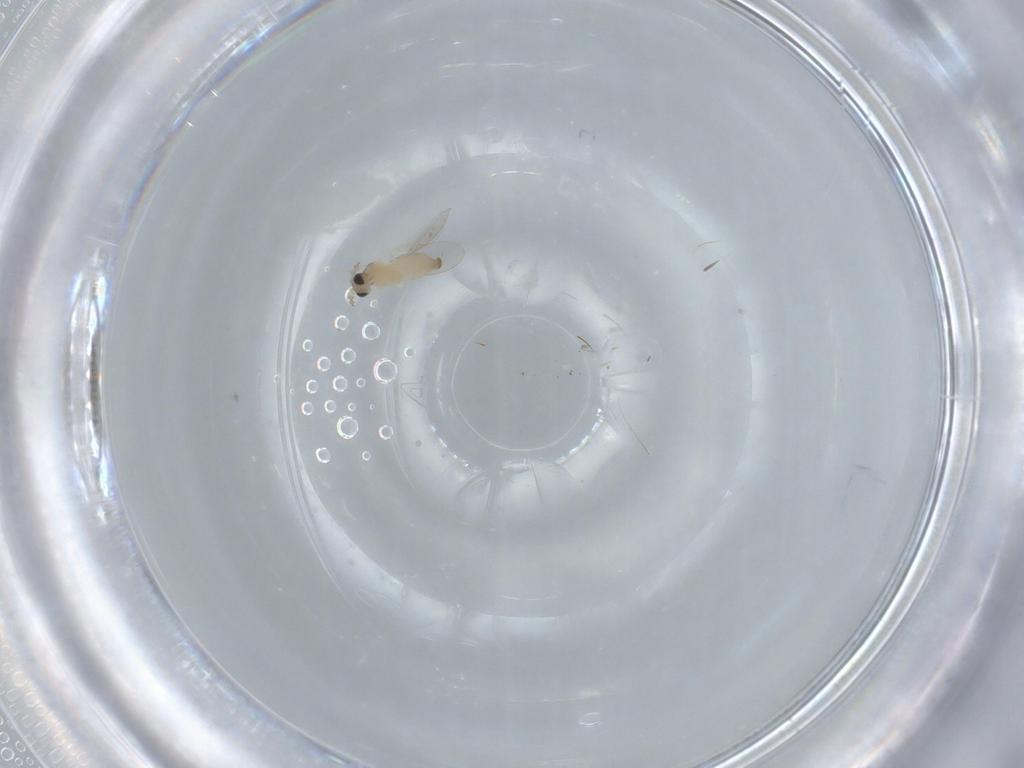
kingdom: Animalia
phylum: Arthropoda
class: Insecta
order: Diptera
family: Cecidomyiidae
